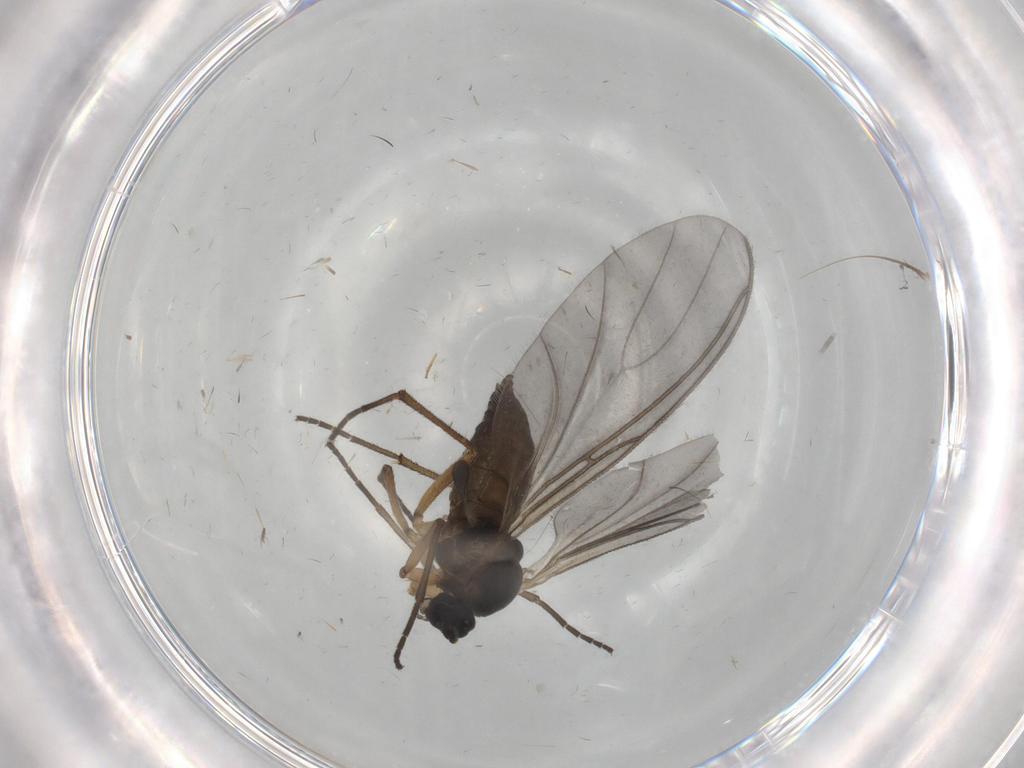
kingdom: Animalia
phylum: Arthropoda
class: Insecta
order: Diptera
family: Sciaridae
